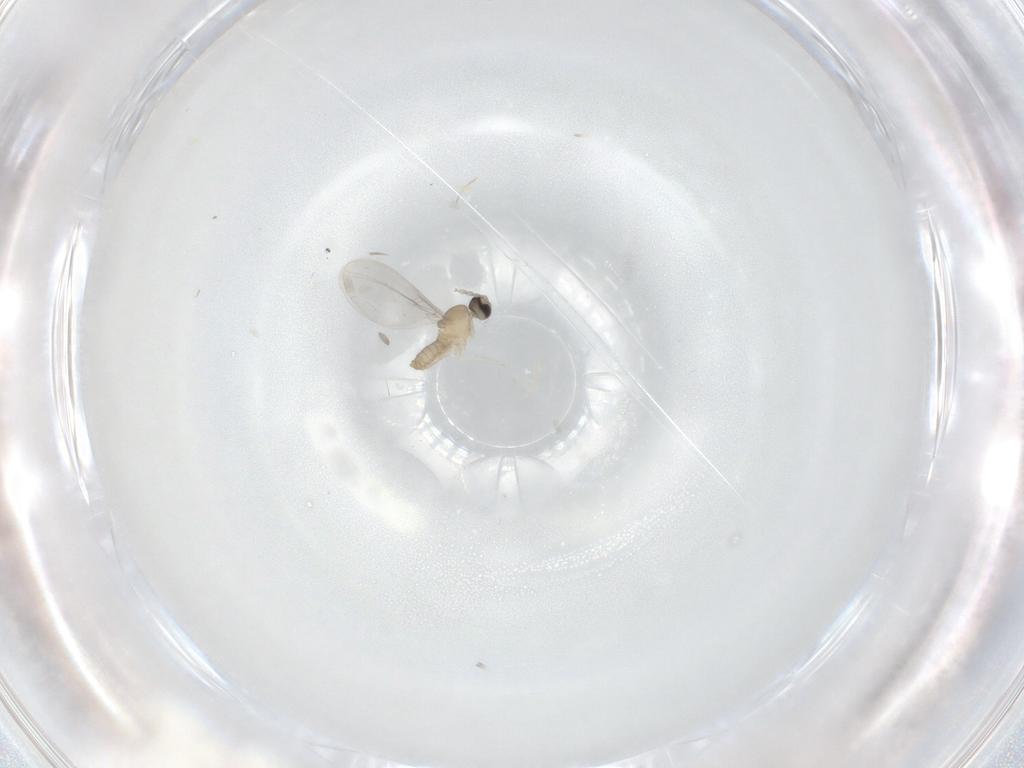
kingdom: Animalia
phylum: Arthropoda
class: Insecta
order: Diptera
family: Cecidomyiidae
